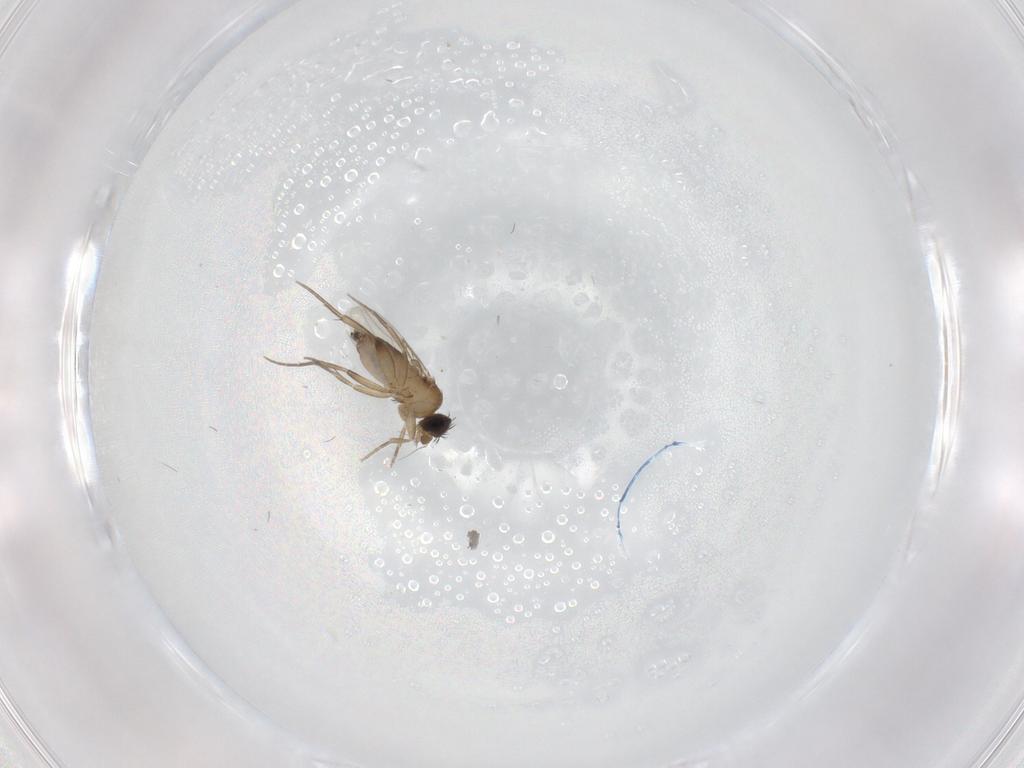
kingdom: Animalia
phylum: Arthropoda
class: Insecta
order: Diptera
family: Phoridae
